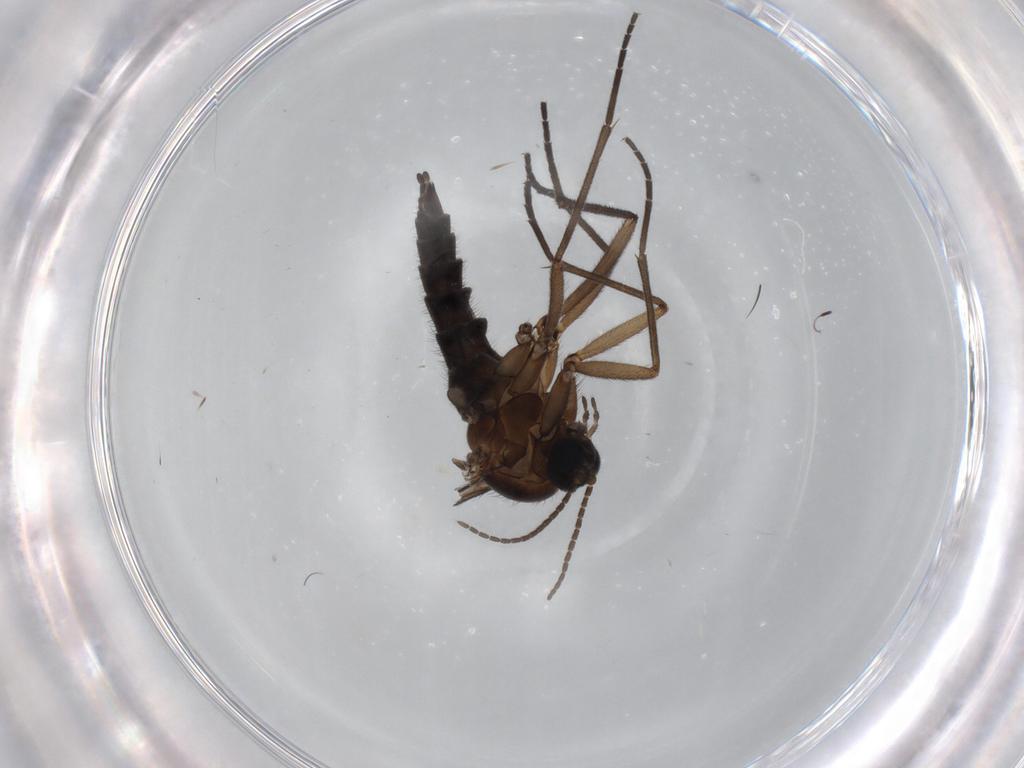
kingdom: Animalia
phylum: Arthropoda
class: Insecta
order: Diptera
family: Sciaridae
